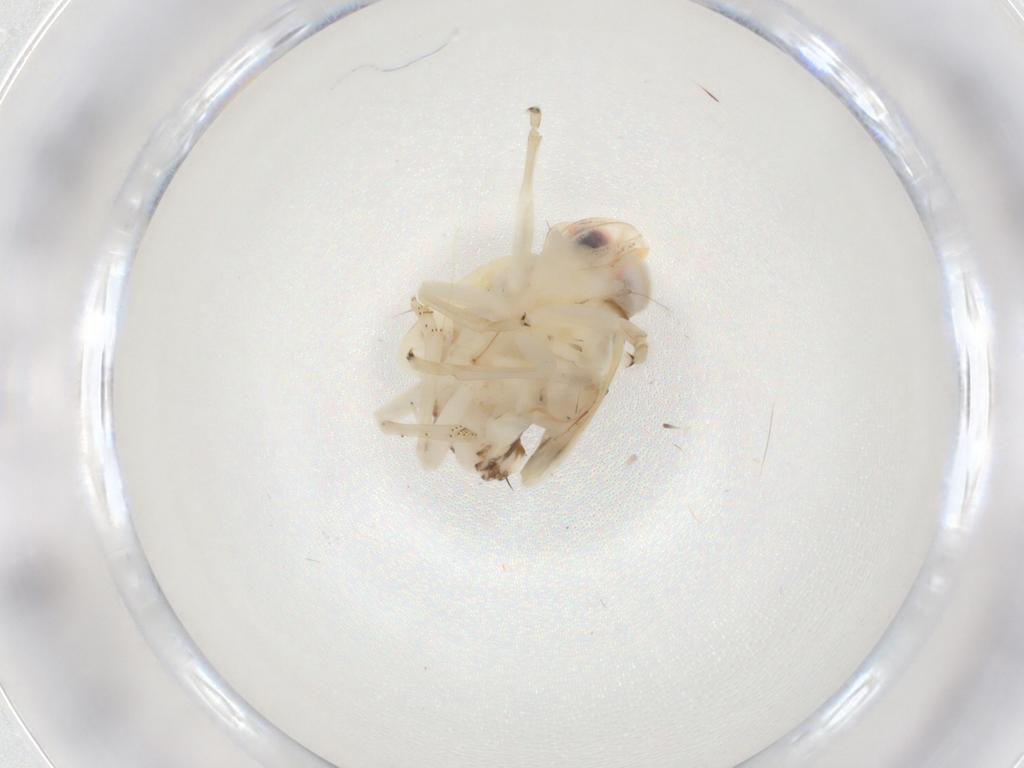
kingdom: Animalia
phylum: Arthropoda
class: Insecta
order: Hemiptera
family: Nogodinidae
